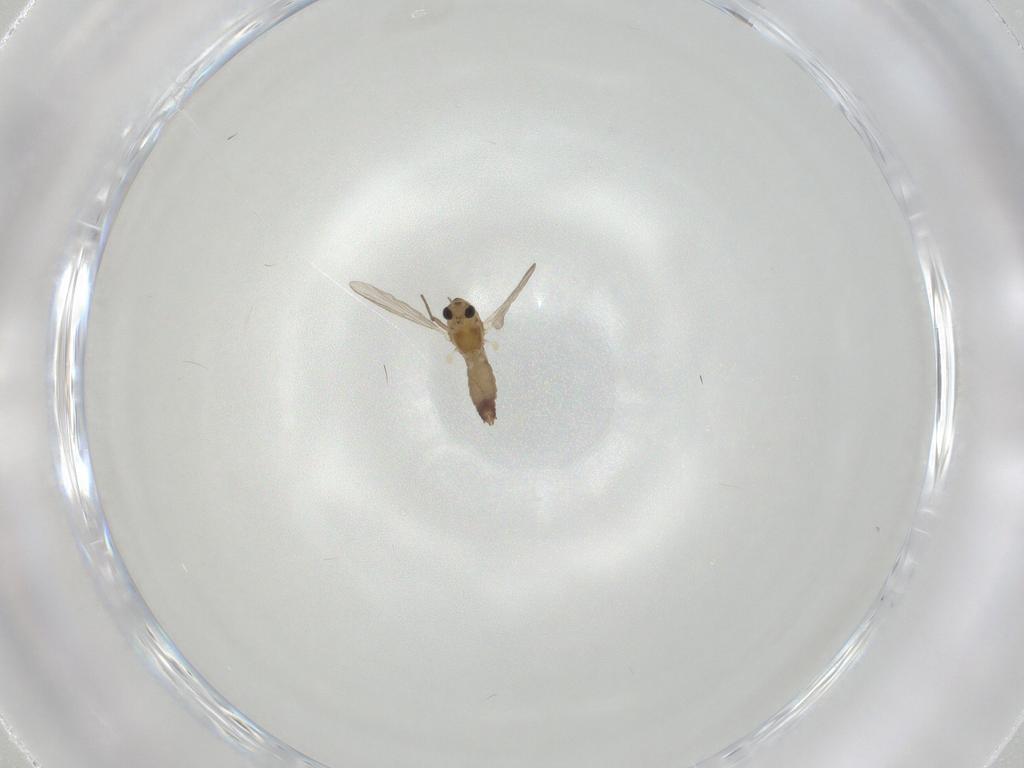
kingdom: Animalia
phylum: Arthropoda
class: Insecta
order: Diptera
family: Chironomidae
